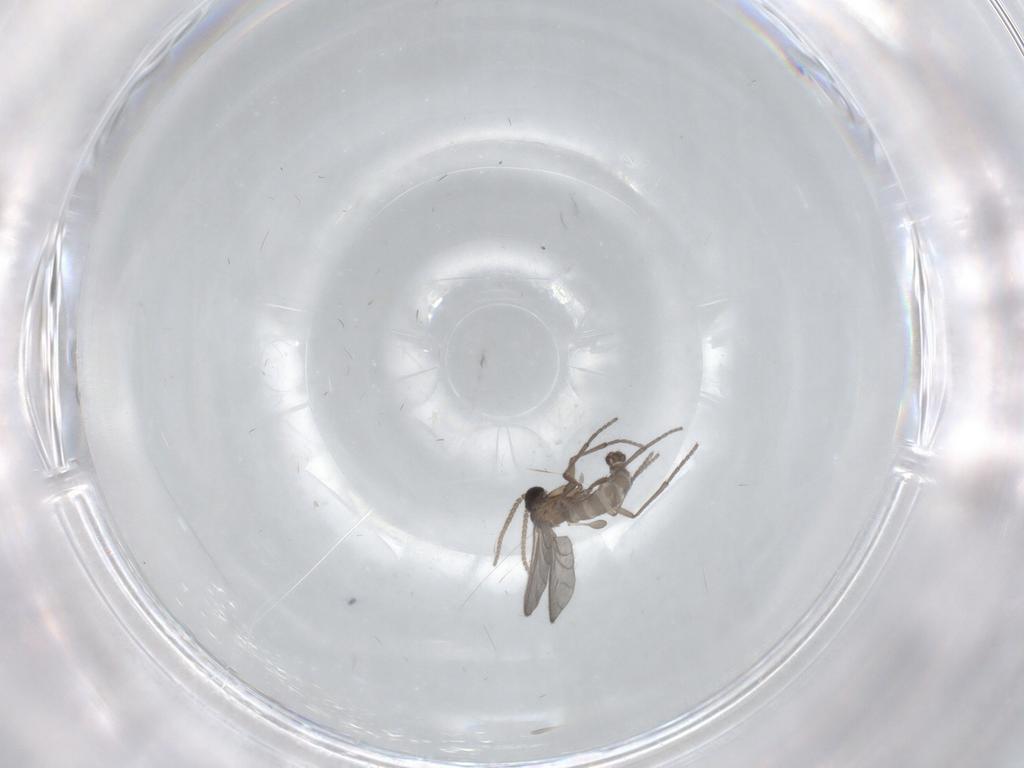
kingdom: Animalia
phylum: Arthropoda
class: Insecta
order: Diptera
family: Sciaridae
